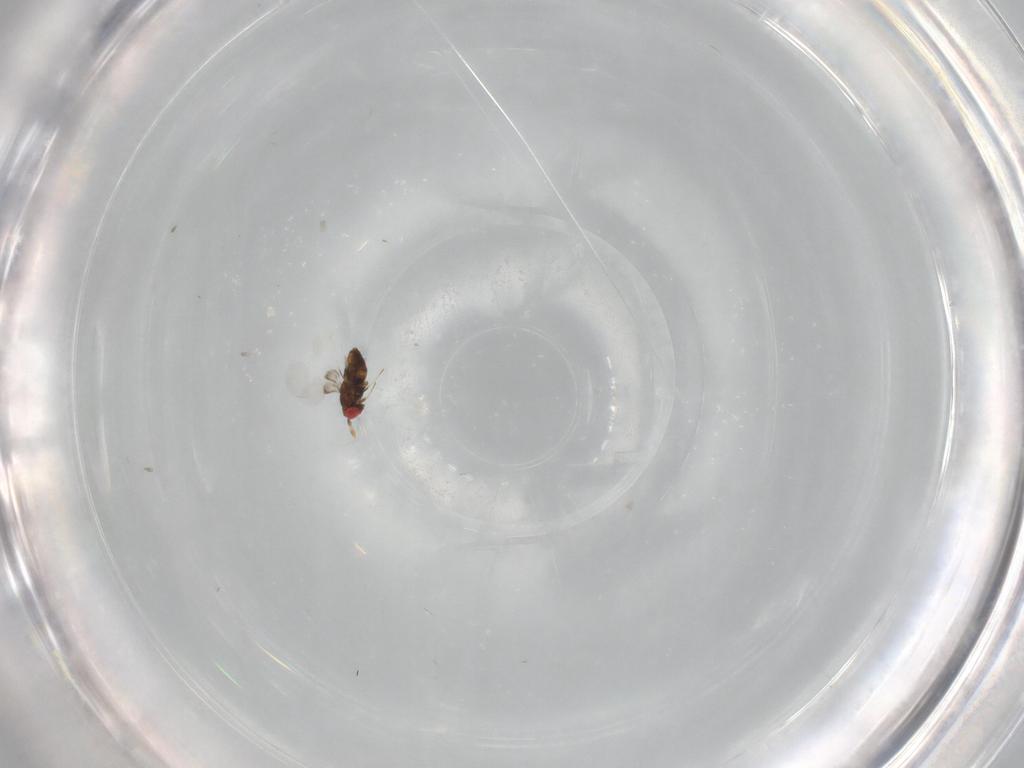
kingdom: Animalia
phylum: Arthropoda
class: Insecta
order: Hymenoptera
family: Trichogrammatidae
